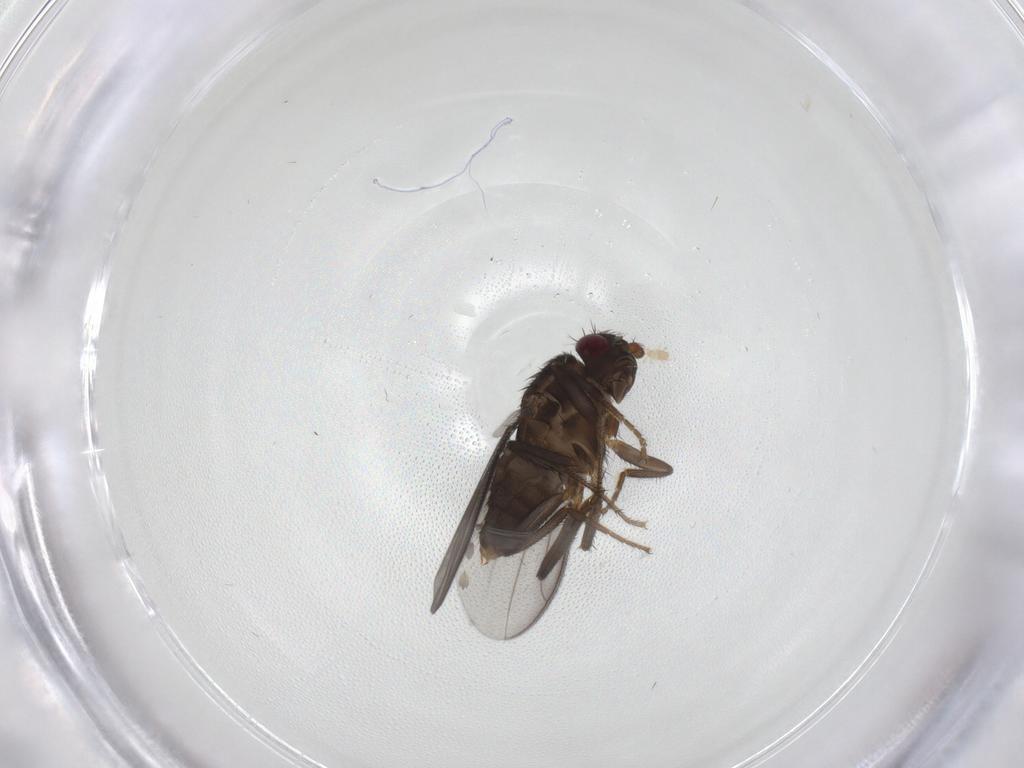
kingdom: Animalia
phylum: Arthropoda
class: Insecta
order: Diptera
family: Sphaeroceridae
